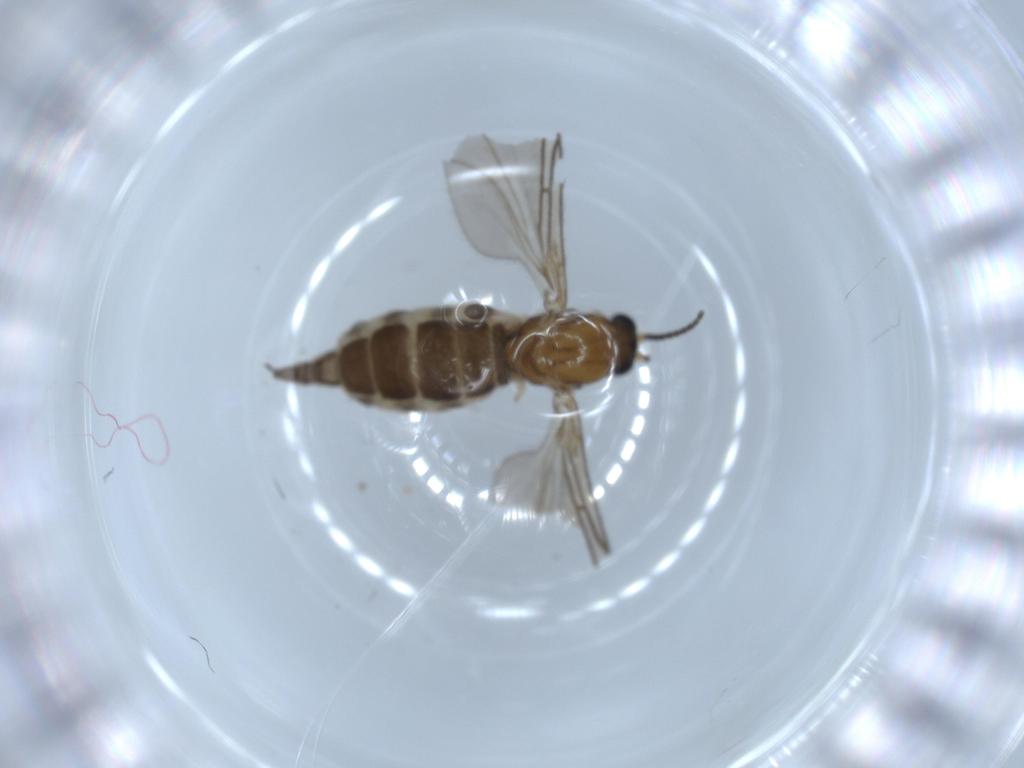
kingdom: Animalia
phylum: Arthropoda
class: Insecta
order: Diptera
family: Sciaridae
